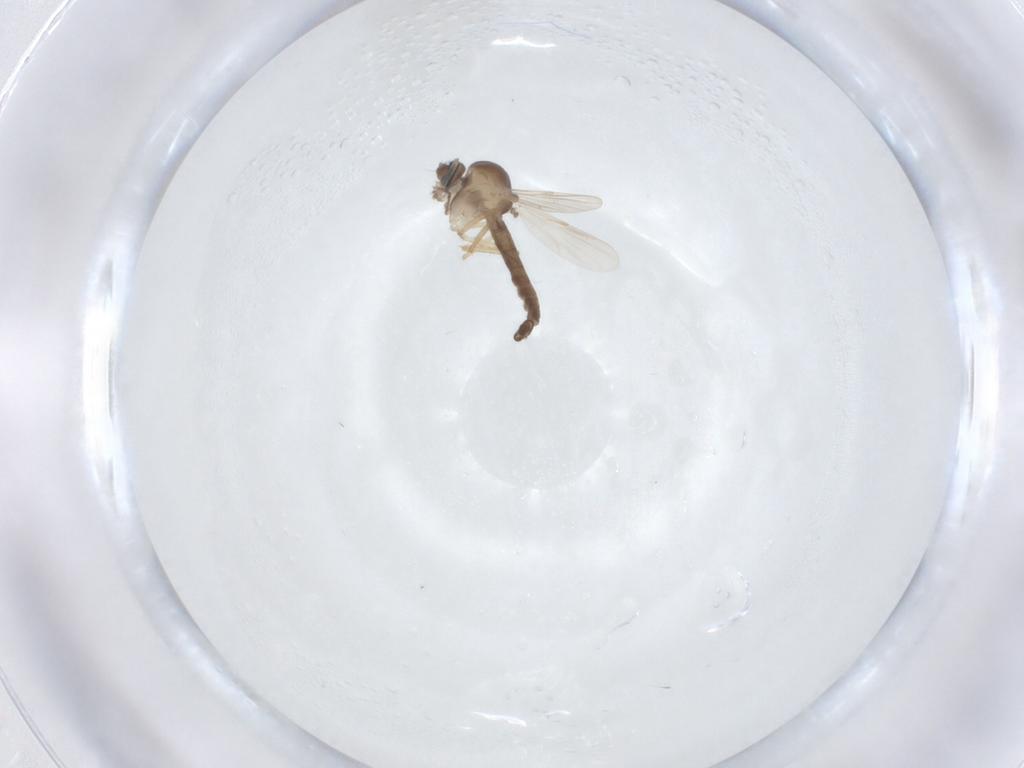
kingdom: Animalia
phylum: Arthropoda
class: Insecta
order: Diptera
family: Ceratopogonidae
